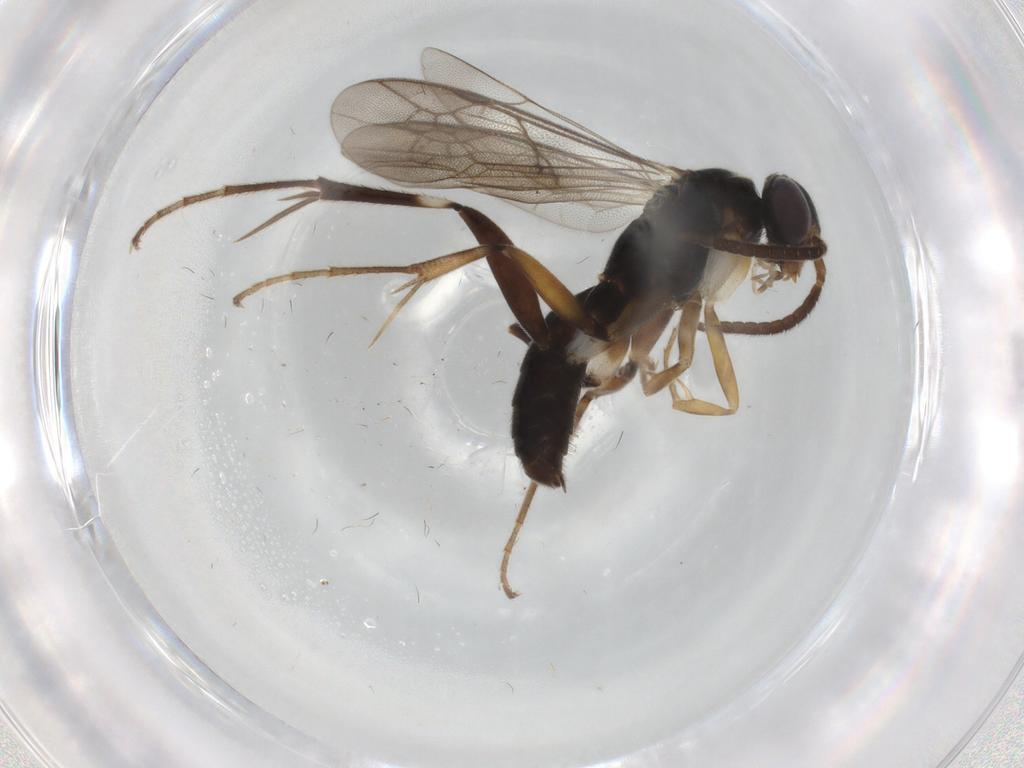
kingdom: Animalia
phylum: Arthropoda
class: Insecta
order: Hymenoptera
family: Pompilidae
